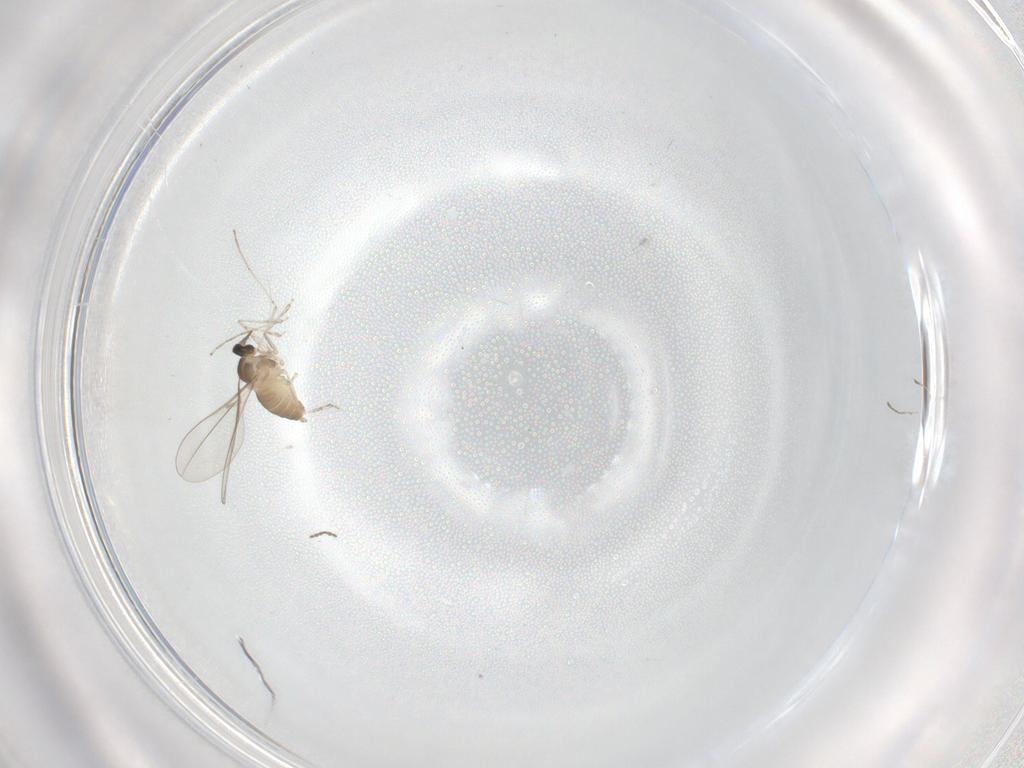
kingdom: Animalia
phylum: Arthropoda
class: Insecta
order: Diptera
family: Cecidomyiidae
